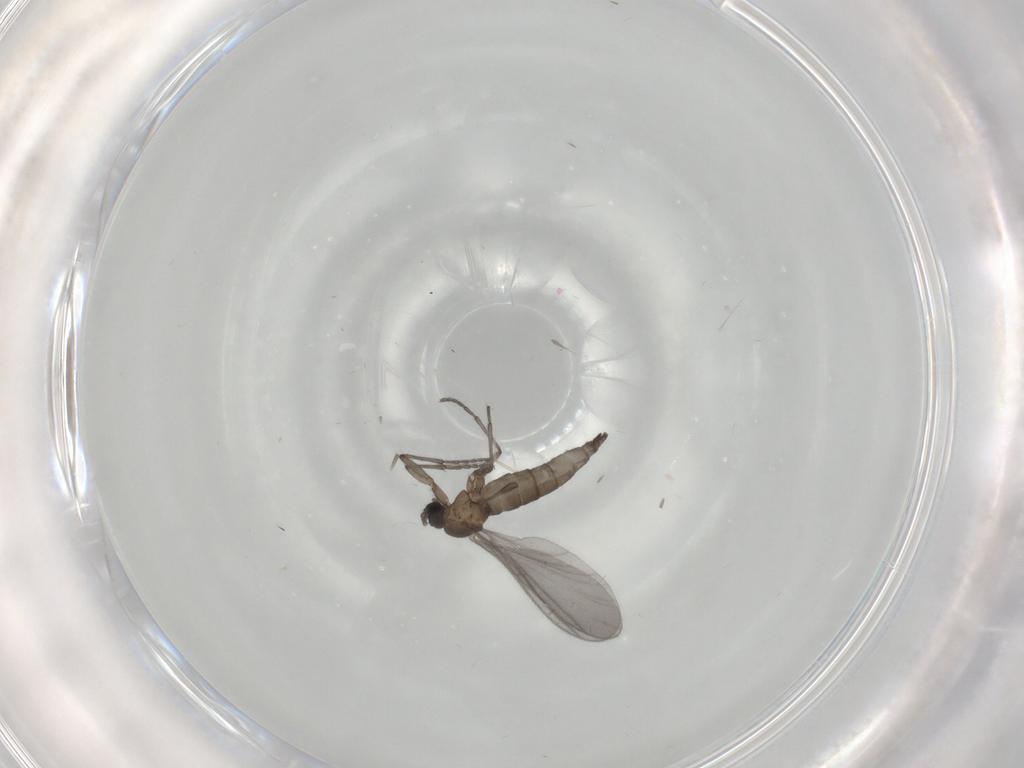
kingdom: Animalia
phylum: Arthropoda
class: Insecta
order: Diptera
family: Sciaridae
